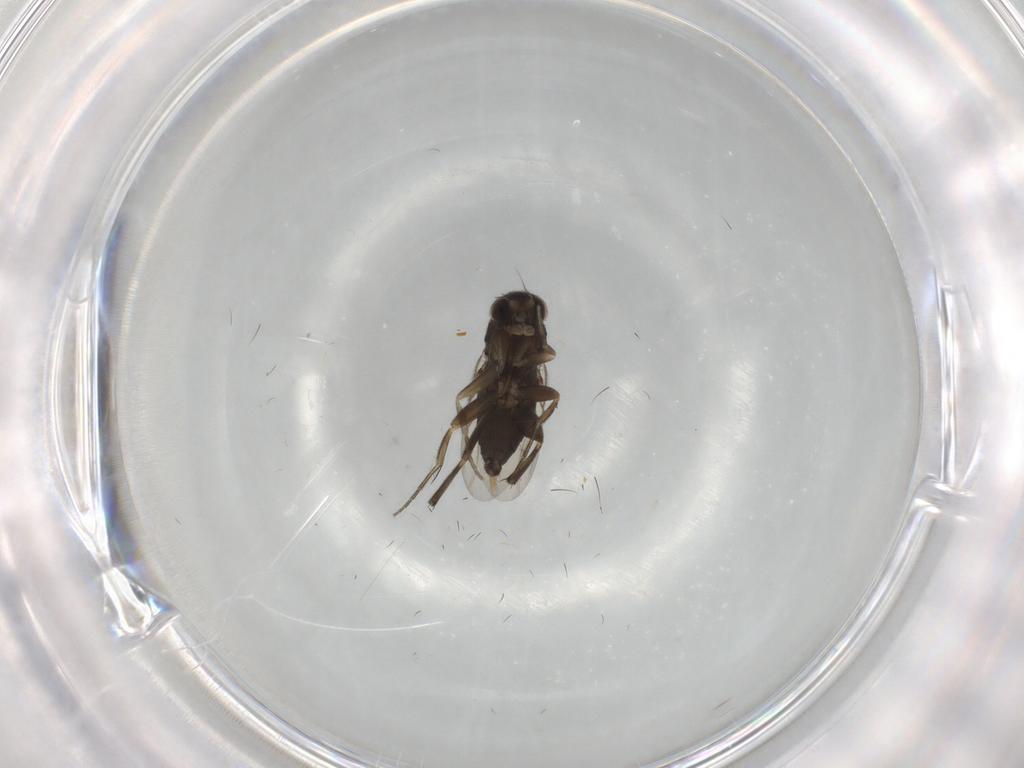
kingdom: Animalia
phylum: Arthropoda
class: Insecta
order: Diptera
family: Phoridae
